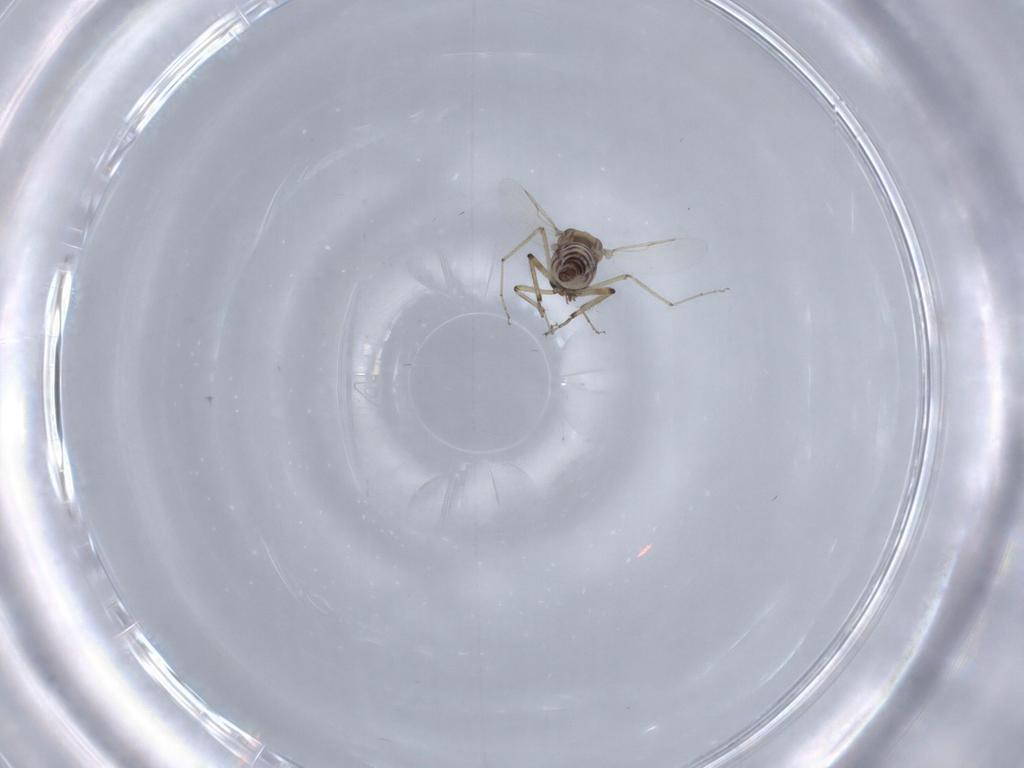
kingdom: Animalia
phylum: Arthropoda
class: Insecta
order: Diptera
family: Ceratopogonidae
